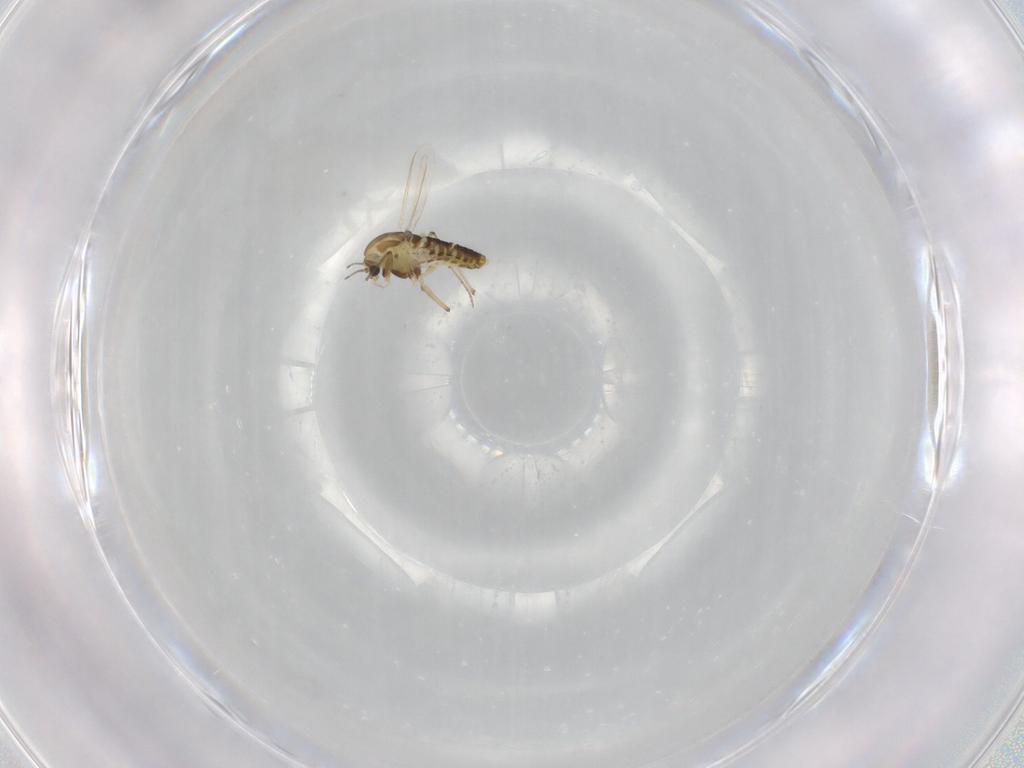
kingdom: Animalia
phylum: Arthropoda
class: Insecta
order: Diptera
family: Chironomidae
